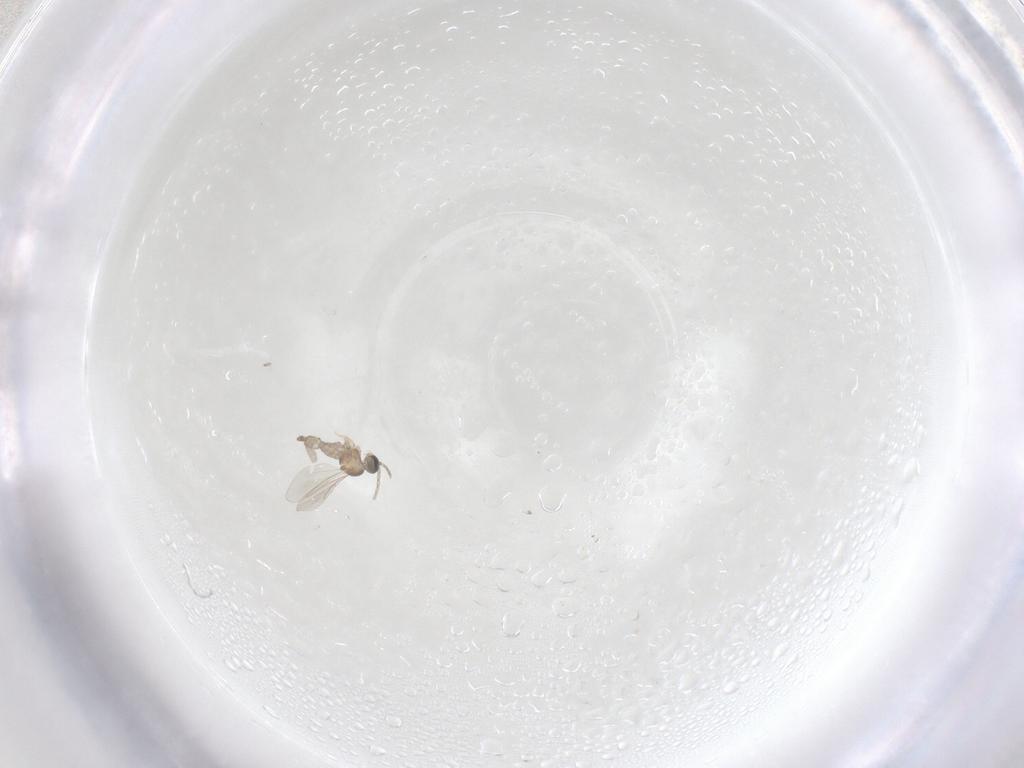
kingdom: Animalia
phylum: Arthropoda
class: Insecta
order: Diptera
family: Cecidomyiidae
